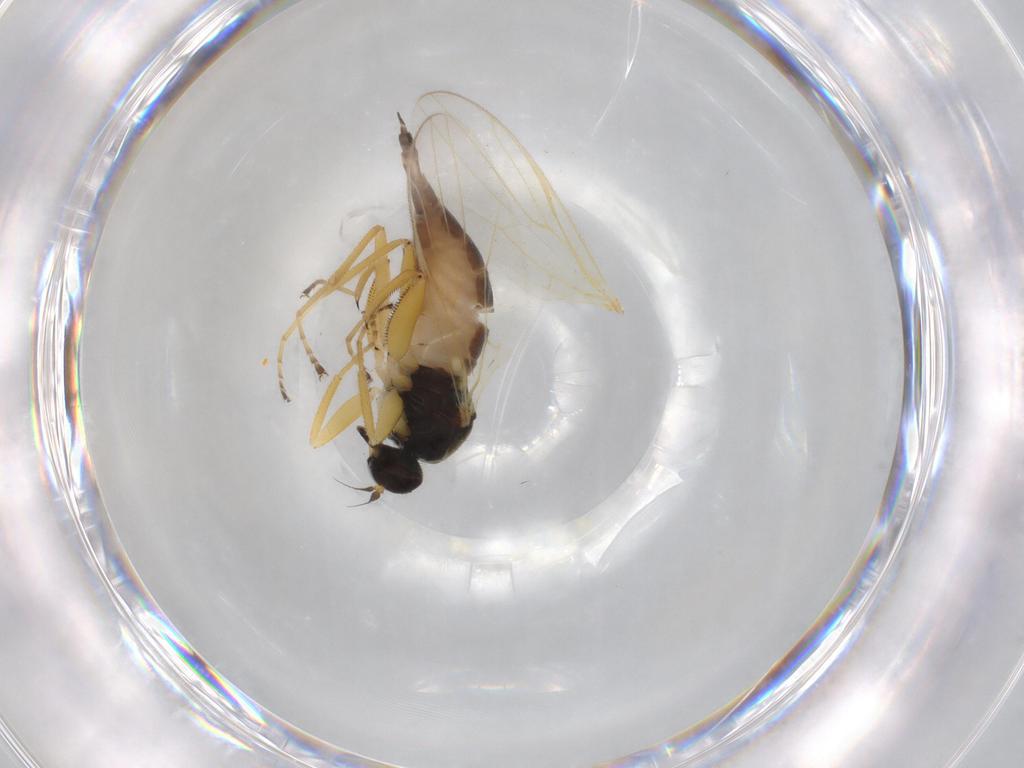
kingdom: Animalia
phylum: Arthropoda
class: Insecta
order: Diptera
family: Hybotidae
